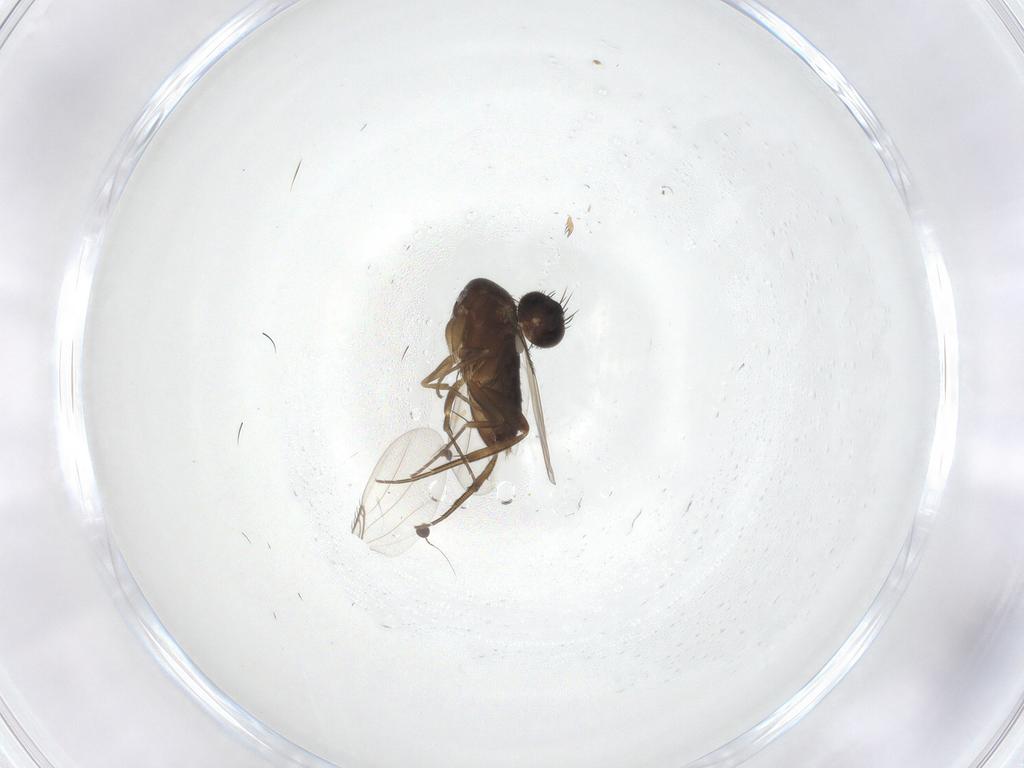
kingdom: Animalia
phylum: Arthropoda
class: Insecta
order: Diptera
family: Phoridae
